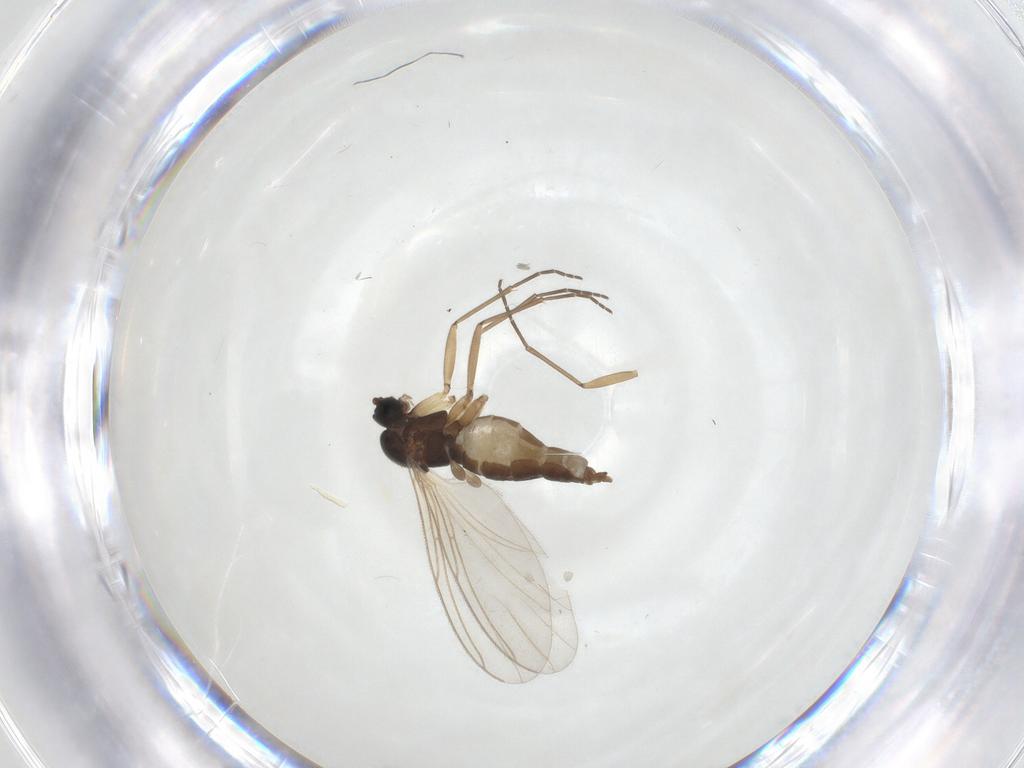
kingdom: Animalia
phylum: Arthropoda
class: Insecta
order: Diptera
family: Sciaridae
